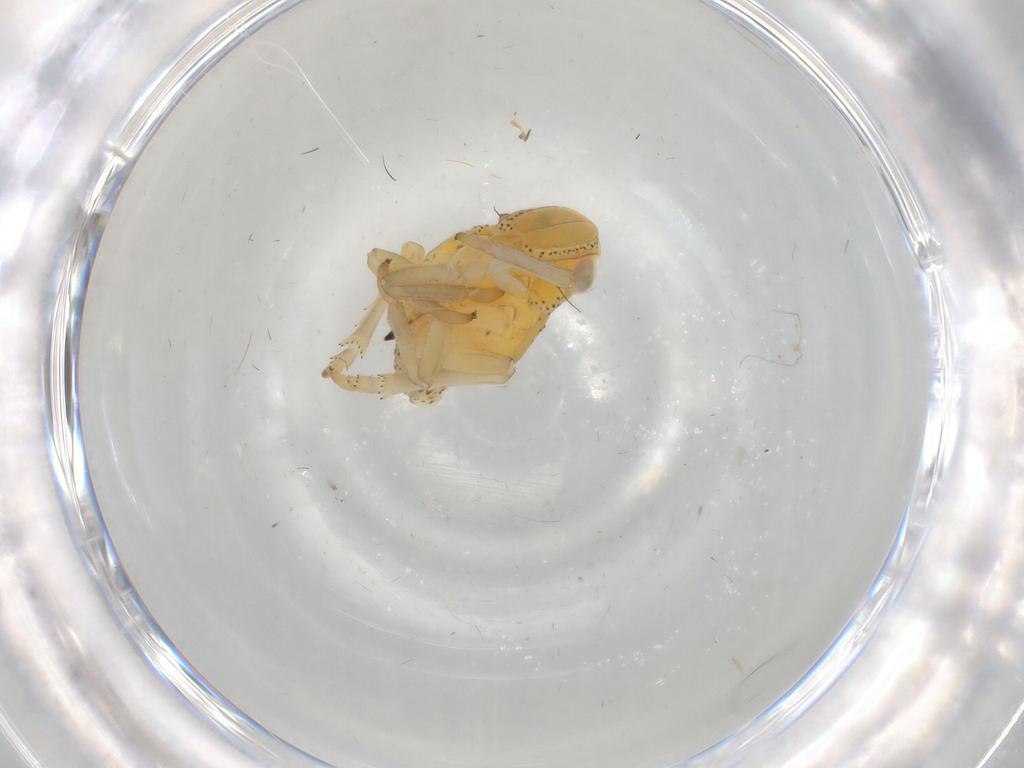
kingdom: Animalia
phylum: Arthropoda
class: Insecta
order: Hemiptera
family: Tropiduchidae
